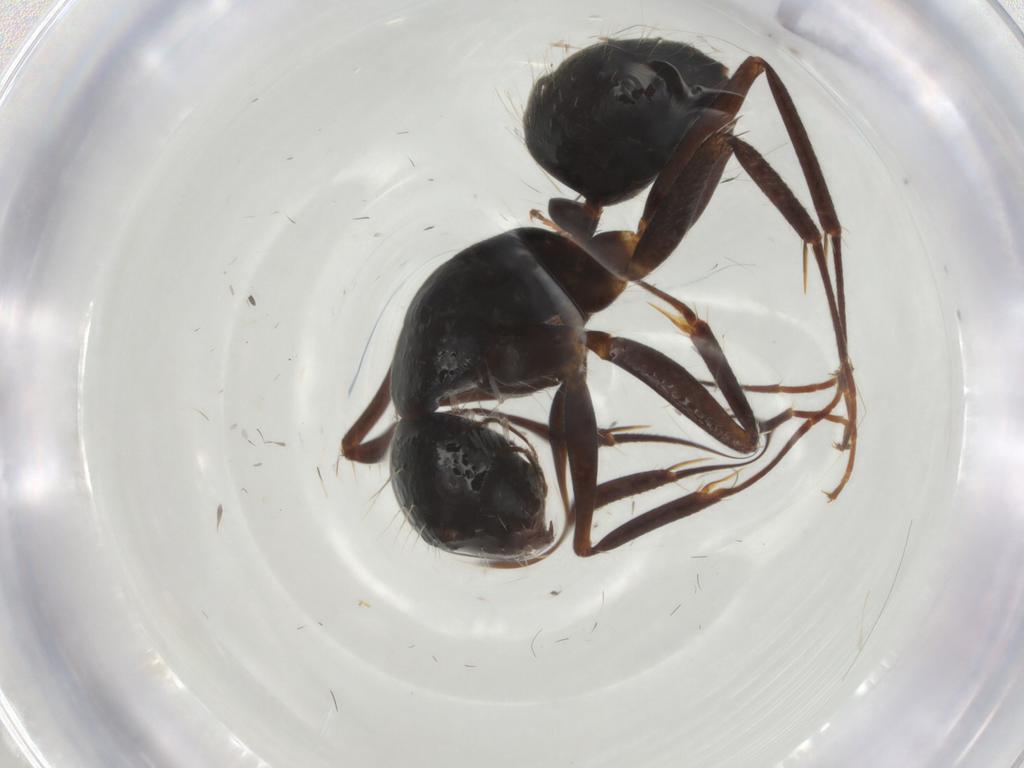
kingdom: Animalia
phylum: Arthropoda
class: Insecta
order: Hymenoptera
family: Formicidae
